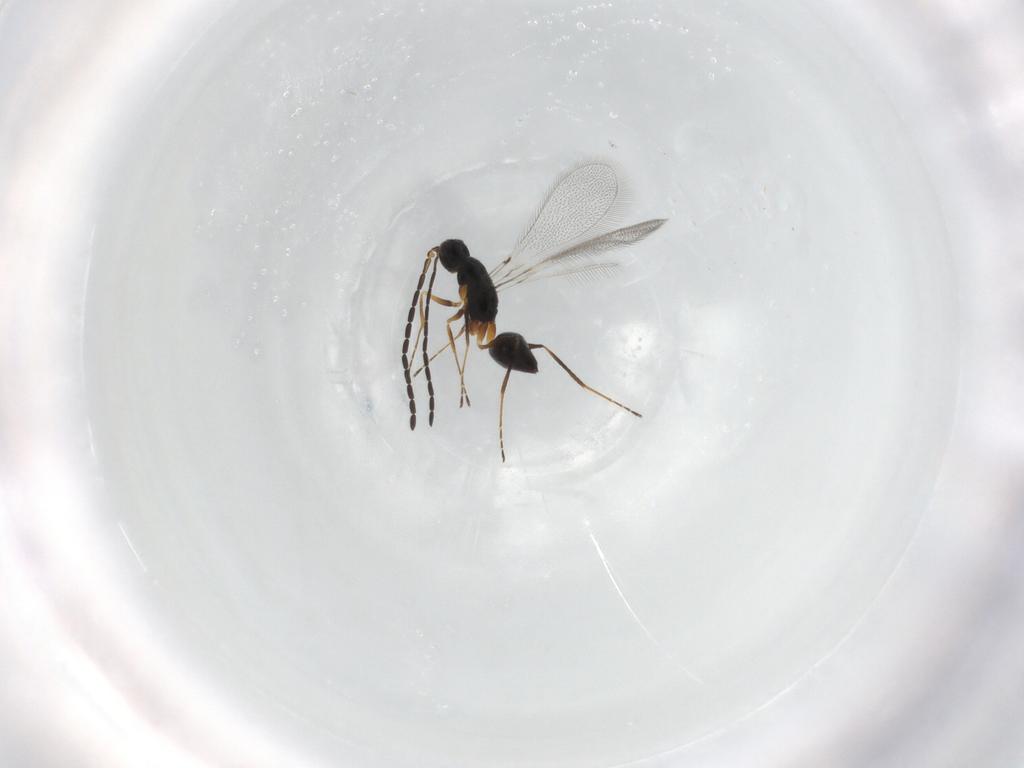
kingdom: Animalia
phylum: Arthropoda
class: Insecta
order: Hymenoptera
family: Mymaridae
